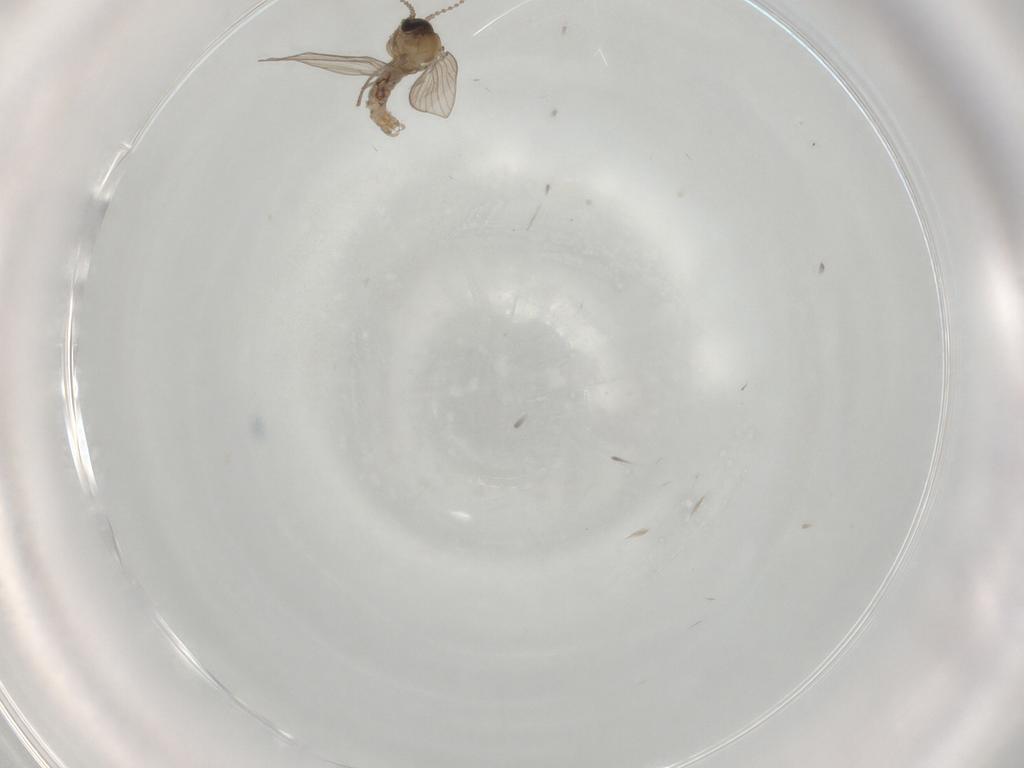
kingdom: Animalia
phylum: Arthropoda
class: Insecta
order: Diptera
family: Psychodidae
